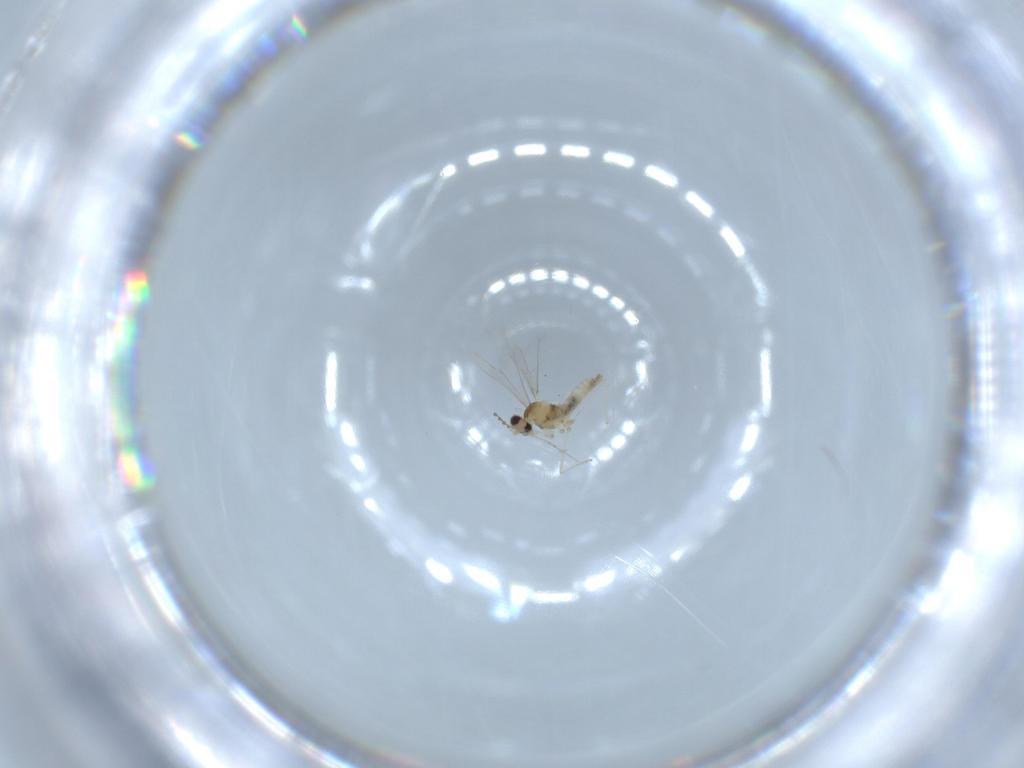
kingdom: Animalia
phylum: Arthropoda
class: Insecta
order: Diptera
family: Cecidomyiidae
